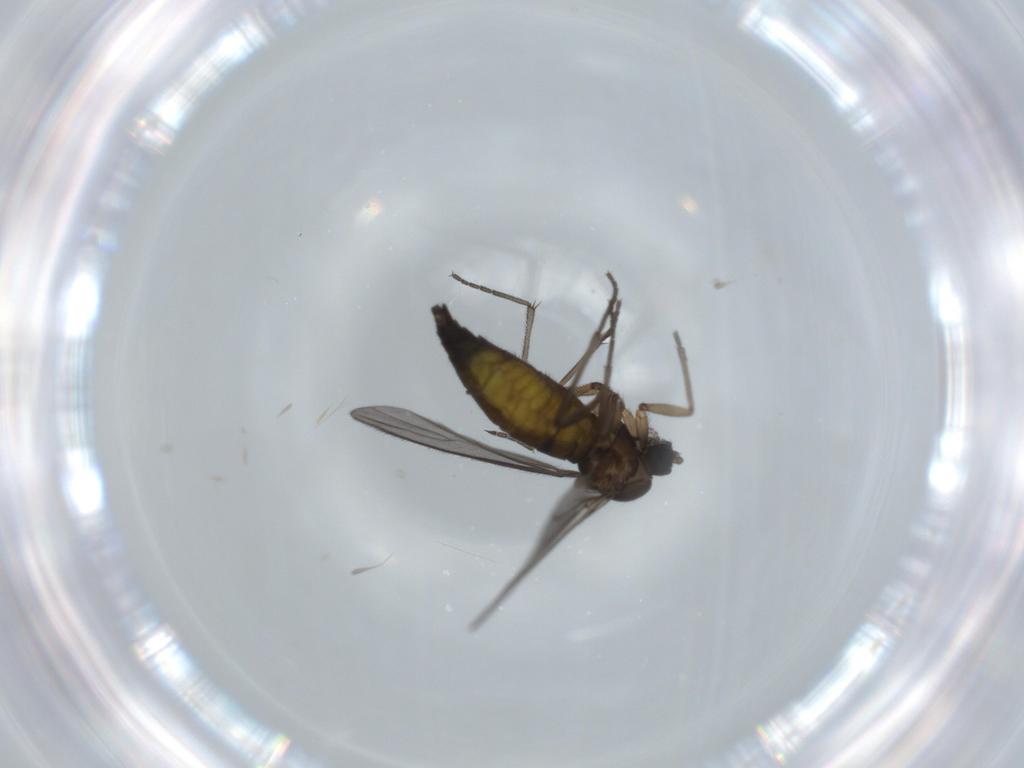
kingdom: Animalia
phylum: Arthropoda
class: Insecta
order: Diptera
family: Sciaridae
